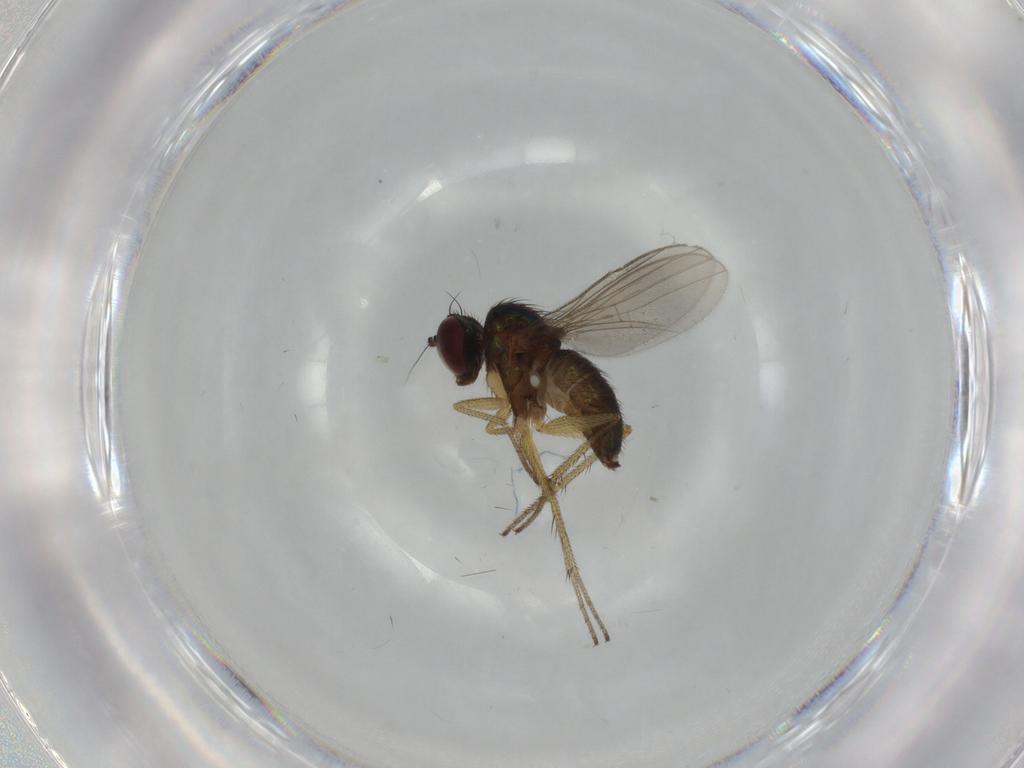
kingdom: Animalia
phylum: Arthropoda
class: Insecta
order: Diptera
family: Dolichopodidae
